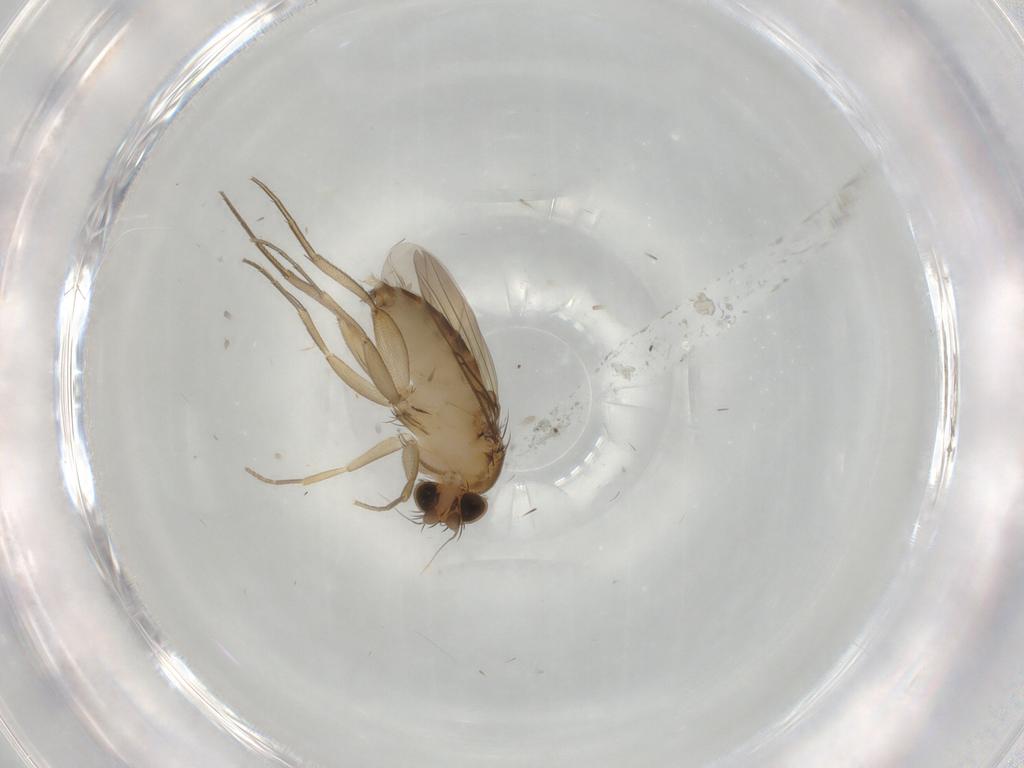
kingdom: Animalia
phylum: Arthropoda
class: Insecta
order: Diptera
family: Phoridae
